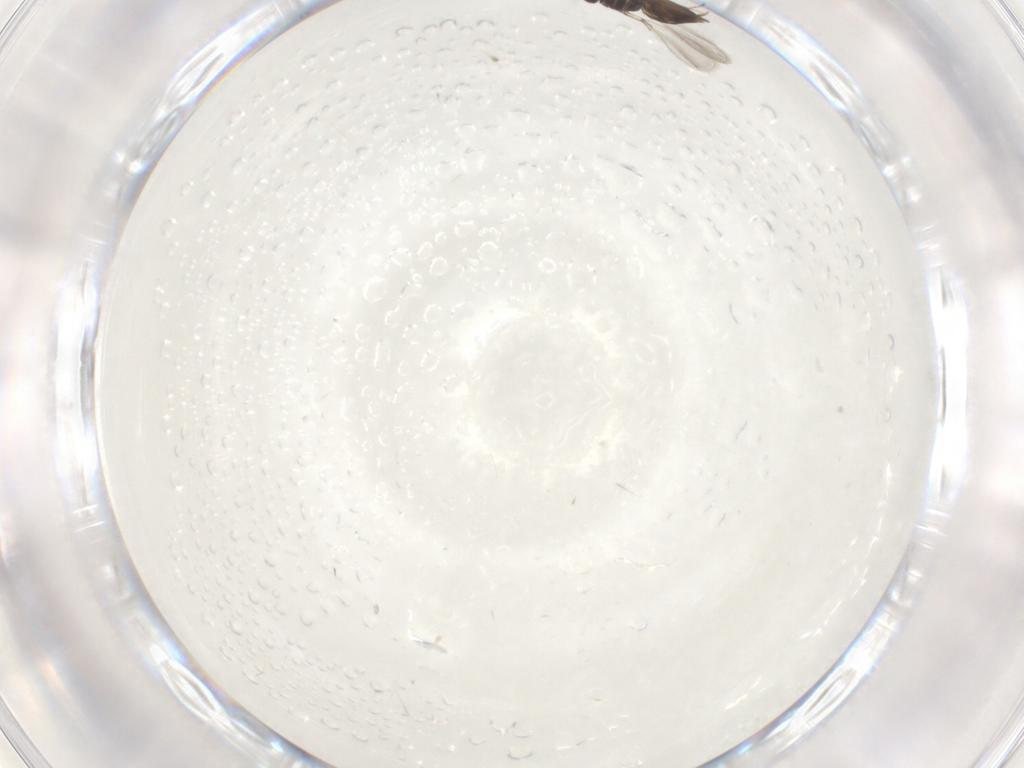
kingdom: Animalia
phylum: Arthropoda
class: Insecta
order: Hymenoptera
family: Mymaridae
